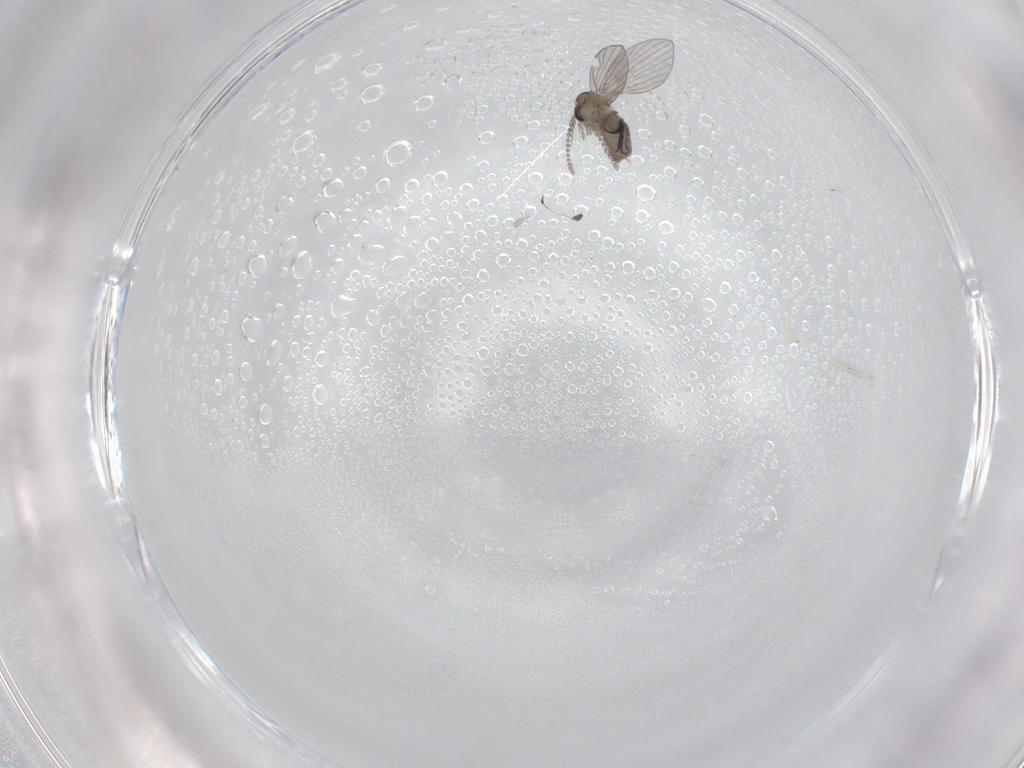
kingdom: Animalia
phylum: Arthropoda
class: Insecta
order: Diptera
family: Psychodidae
